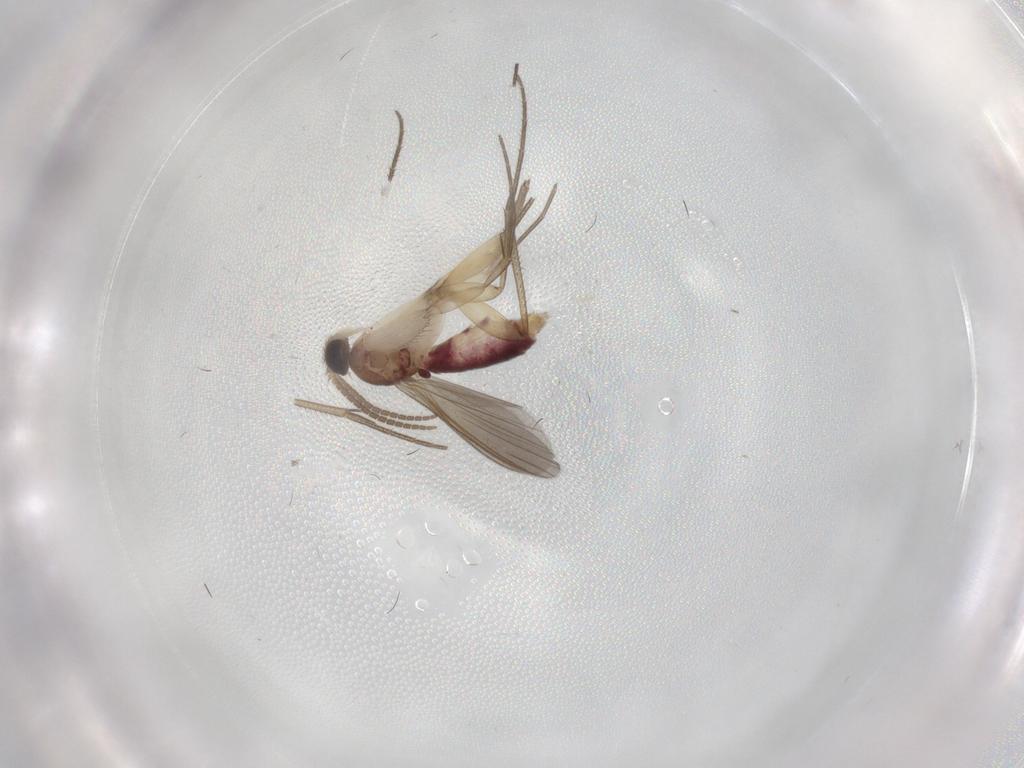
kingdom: Animalia
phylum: Arthropoda
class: Insecta
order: Diptera
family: Mycetophilidae
